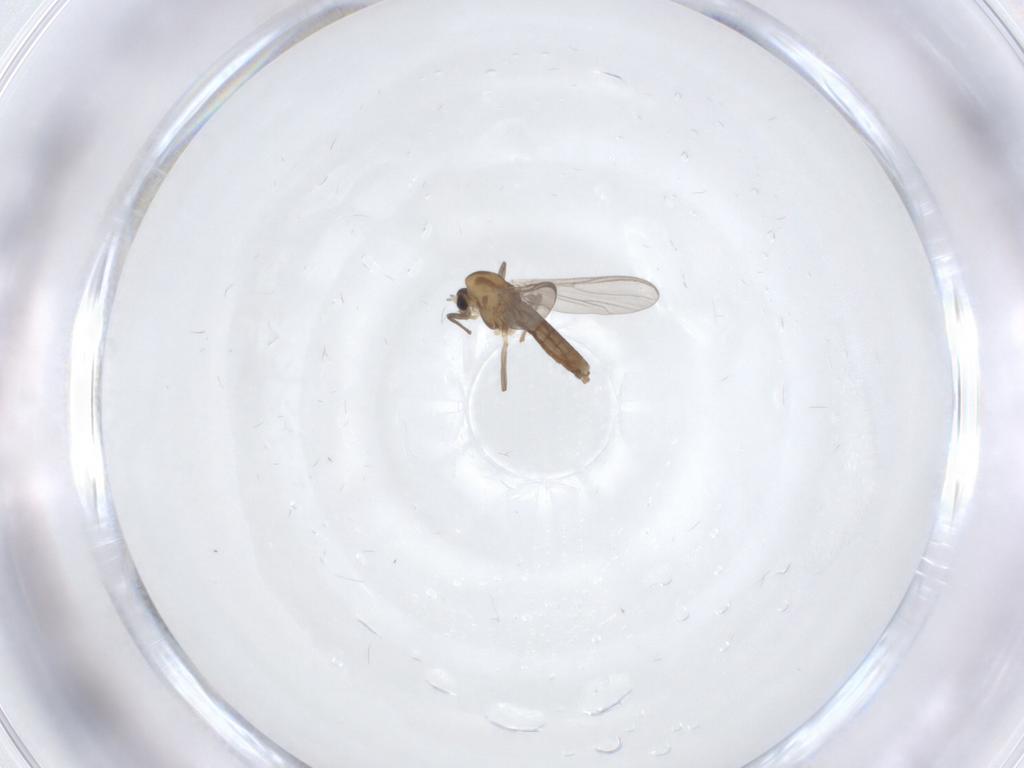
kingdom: Animalia
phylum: Arthropoda
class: Insecta
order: Diptera
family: Chironomidae
